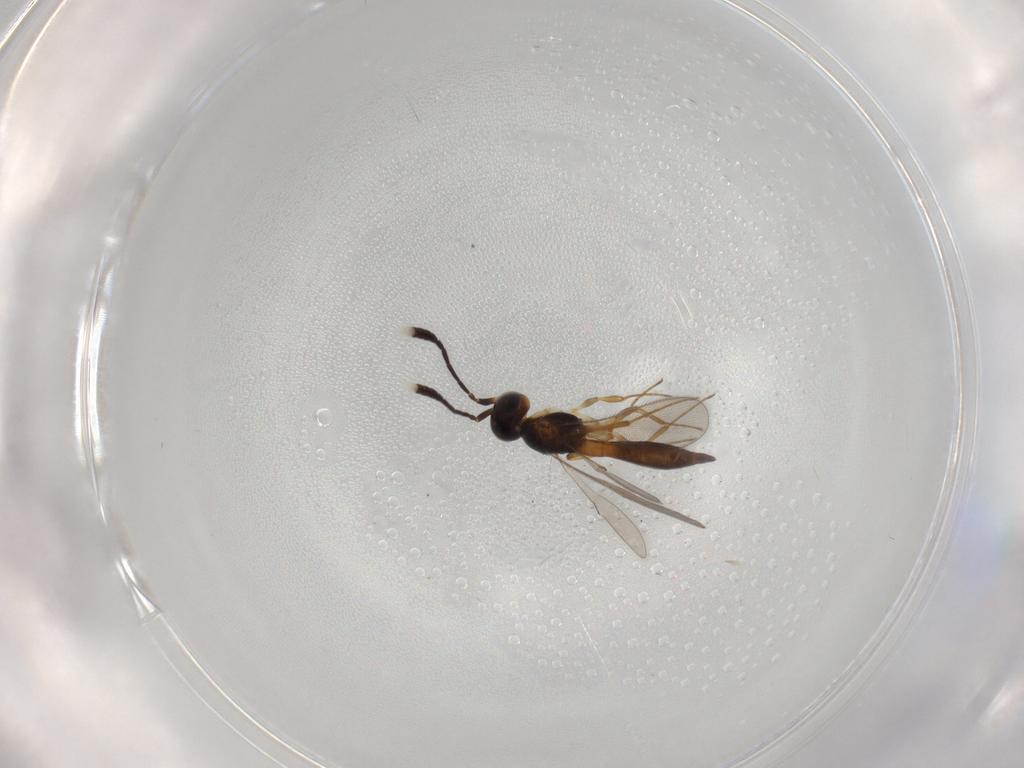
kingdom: Animalia
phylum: Arthropoda
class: Insecta
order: Hymenoptera
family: Scelionidae
